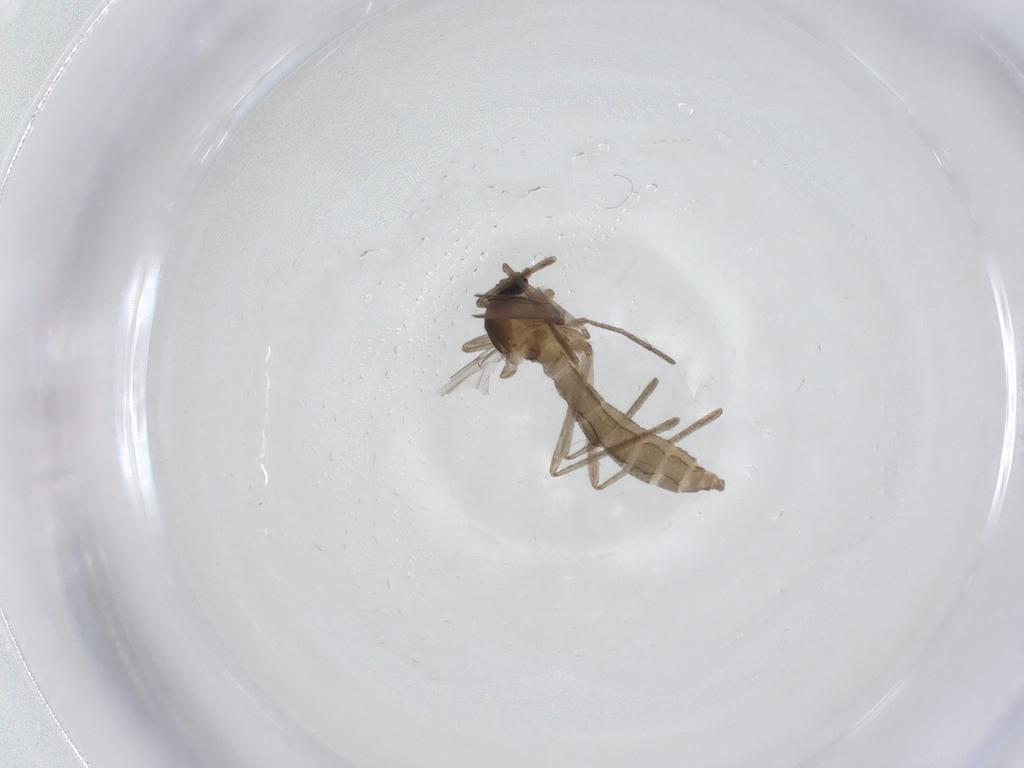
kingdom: Animalia
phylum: Arthropoda
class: Insecta
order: Diptera
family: Cecidomyiidae
